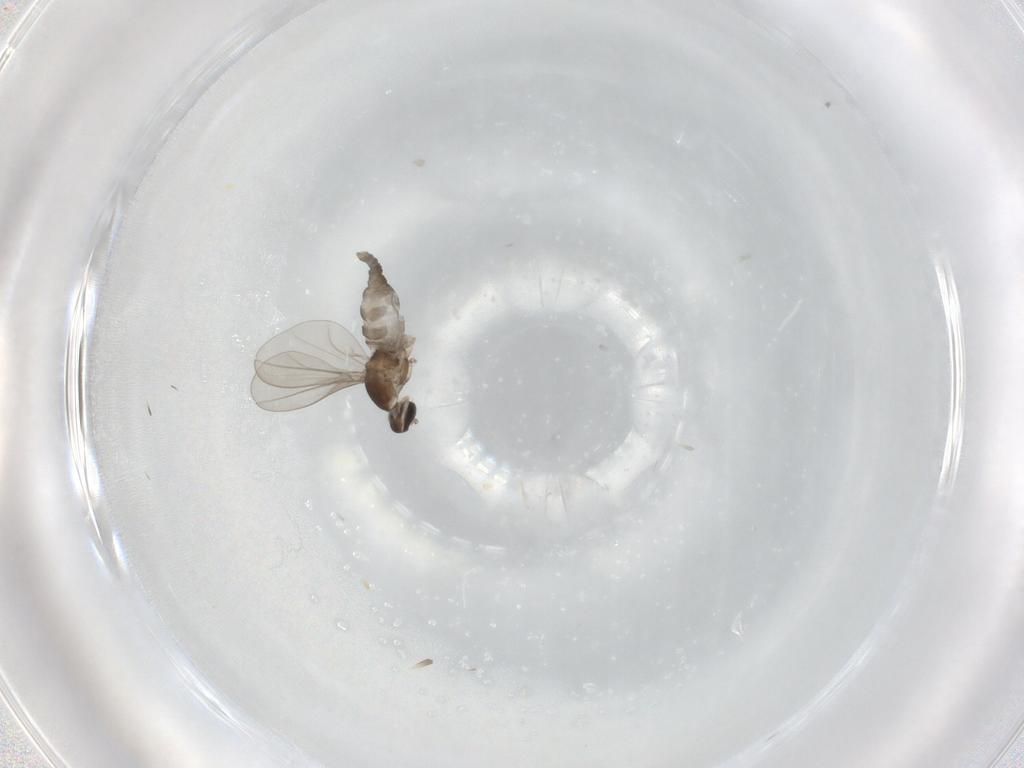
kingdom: Animalia
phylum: Arthropoda
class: Insecta
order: Diptera
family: Cecidomyiidae
